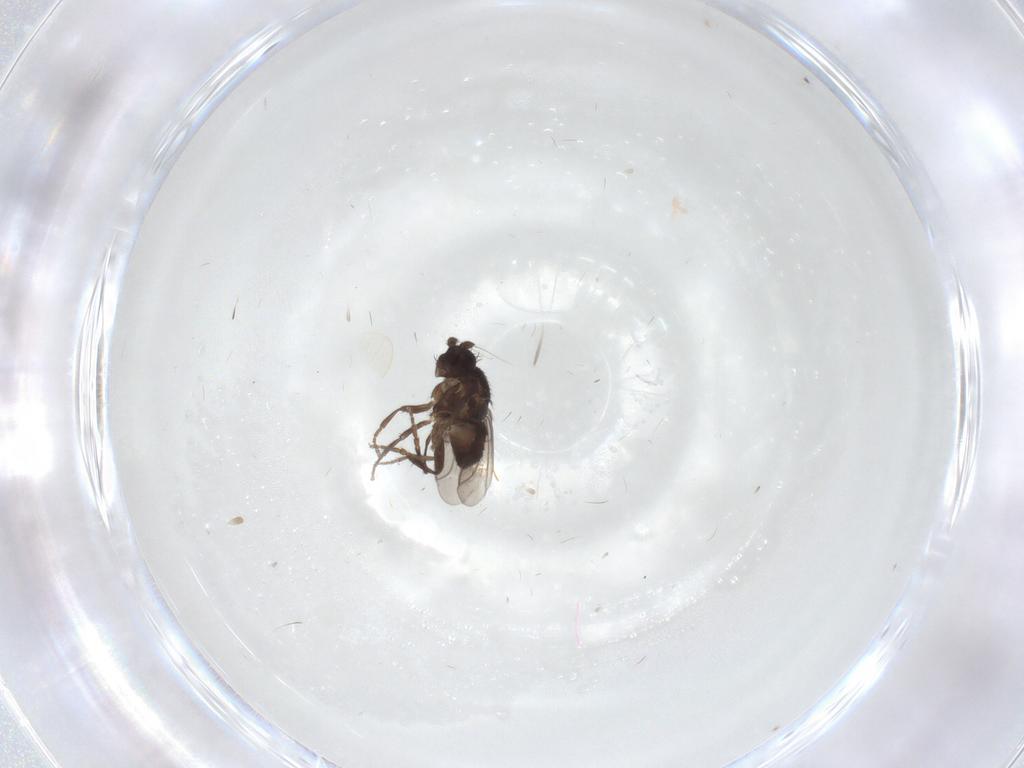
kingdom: Animalia
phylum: Arthropoda
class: Insecta
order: Diptera
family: Sphaeroceridae
